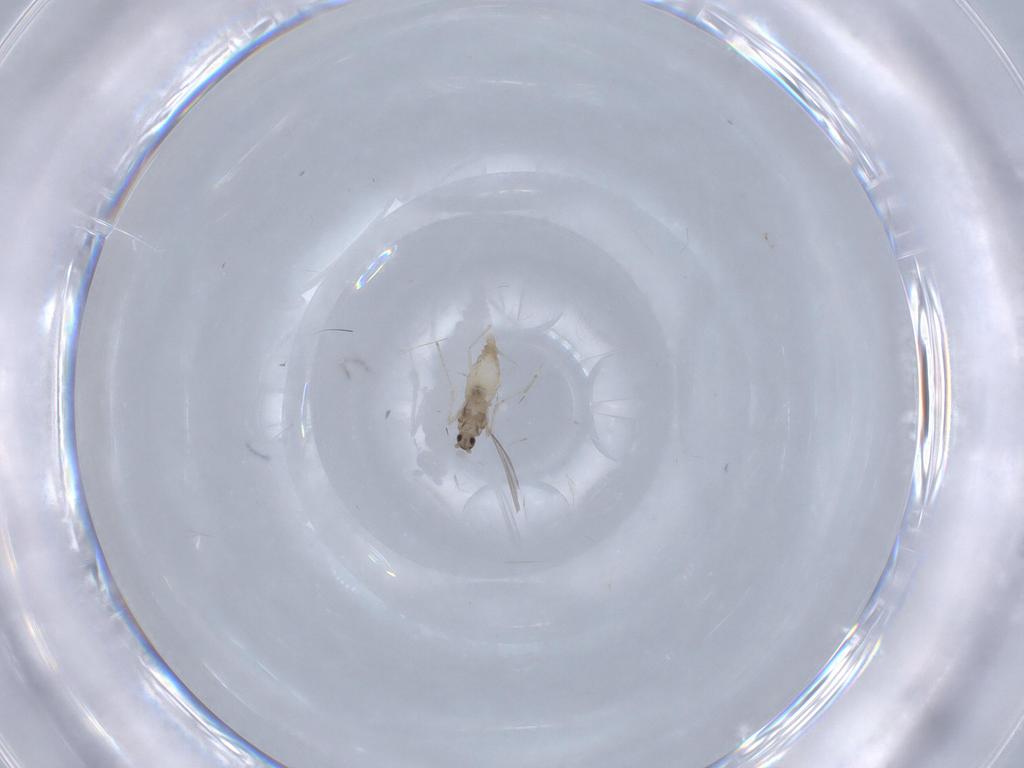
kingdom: Animalia
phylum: Arthropoda
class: Insecta
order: Diptera
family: Cecidomyiidae
